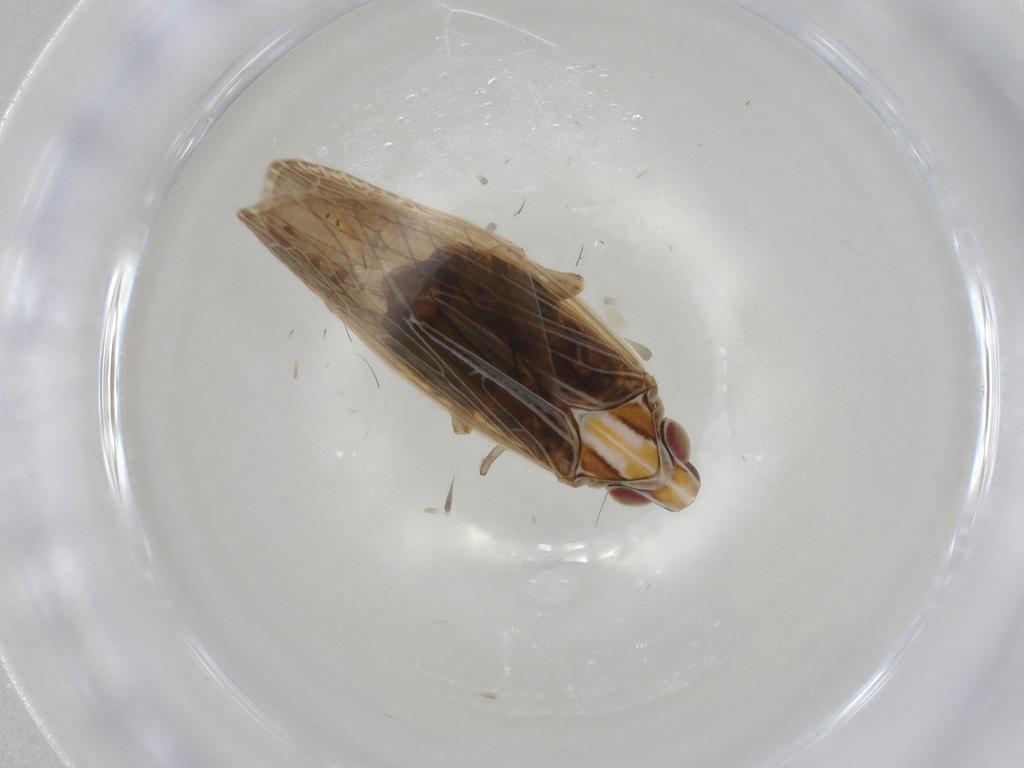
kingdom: Animalia
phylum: Arthropoda
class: Insecta
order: Hemiptera
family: Achilidae
